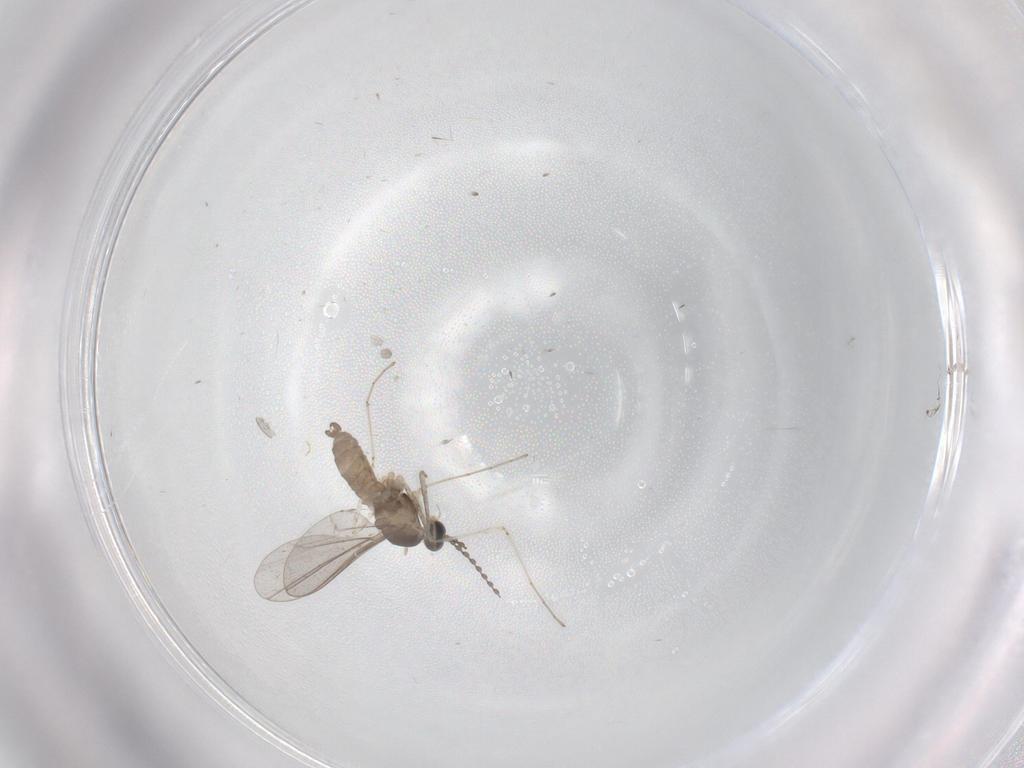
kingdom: Animalia
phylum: Arthropoda
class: Insecta
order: Diptera
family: Cecidomyiidae
